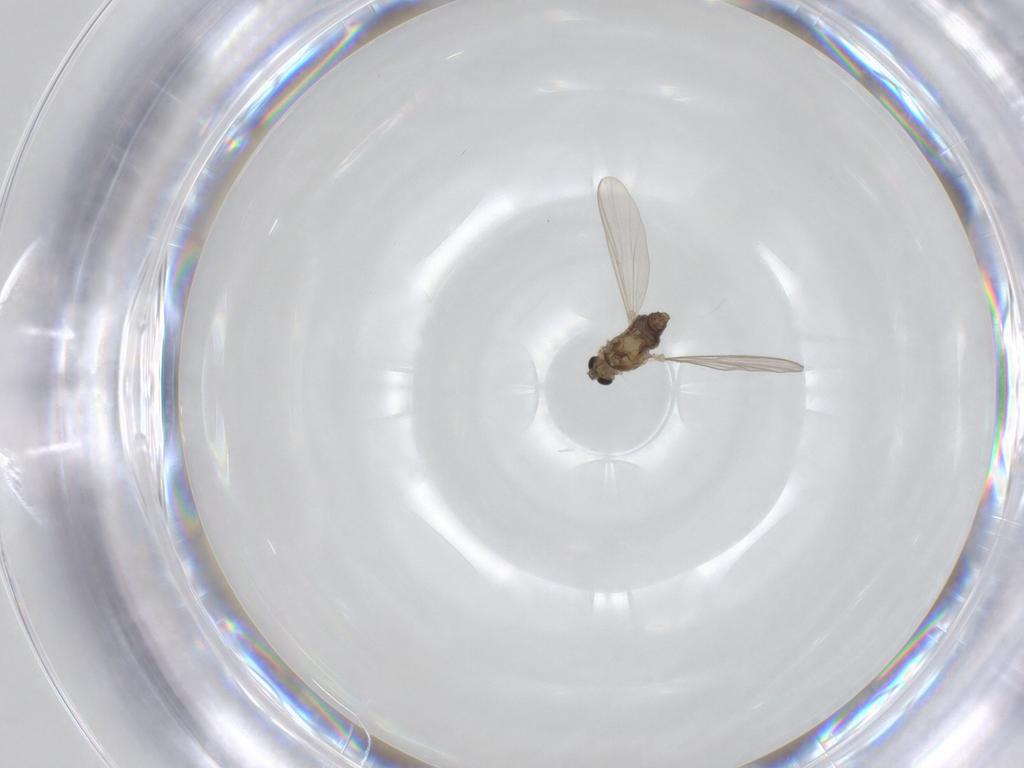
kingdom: Animalia
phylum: Arthropoda
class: Insecta
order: Diptera
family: Chironomidae
